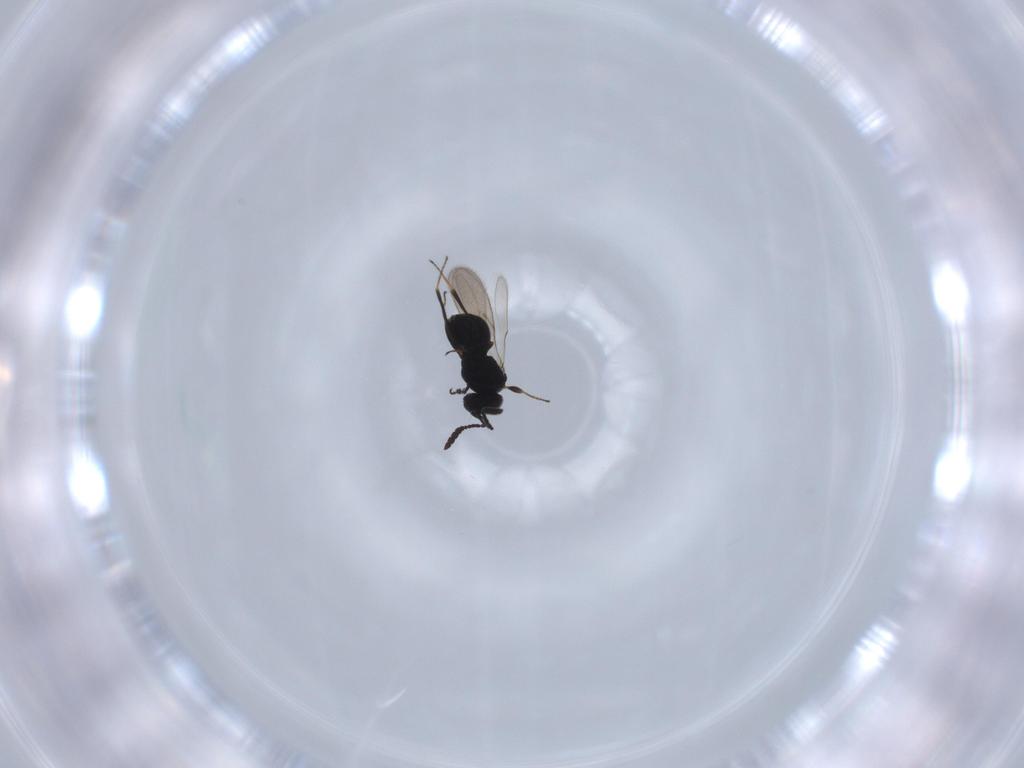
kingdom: Animalia
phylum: Arthropoda
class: Insecta
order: Hymenoptera
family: Scelionidae
